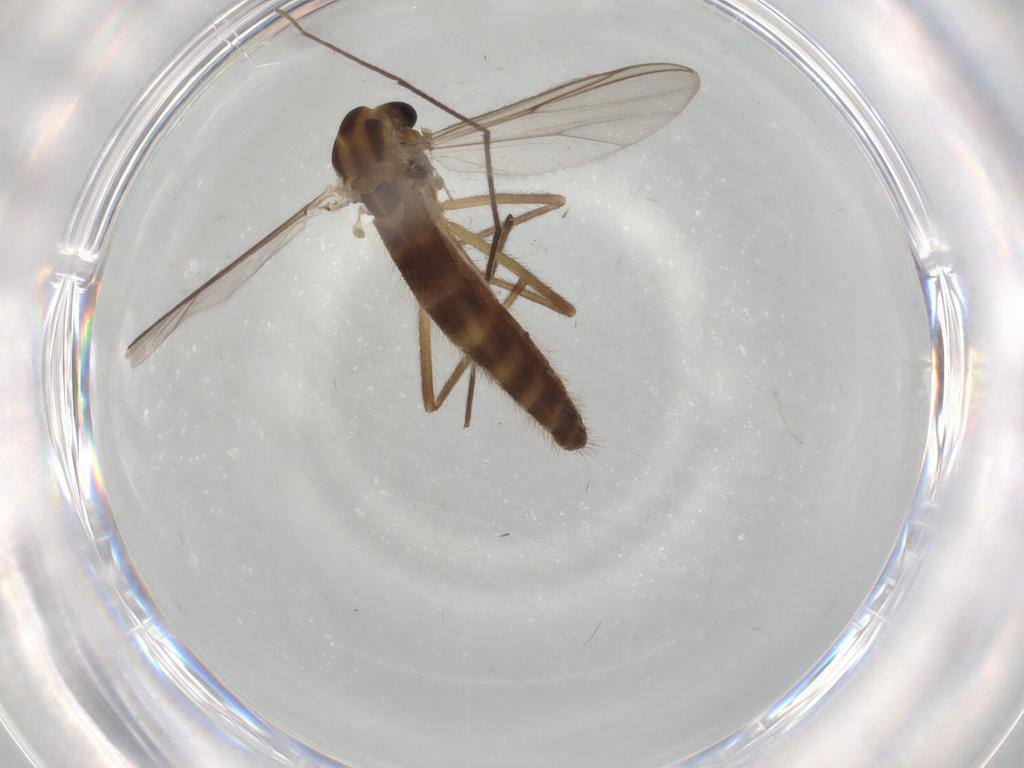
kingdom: Animalia
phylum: Arthropoda
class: Insecta
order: Diptera
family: Chironomidae
